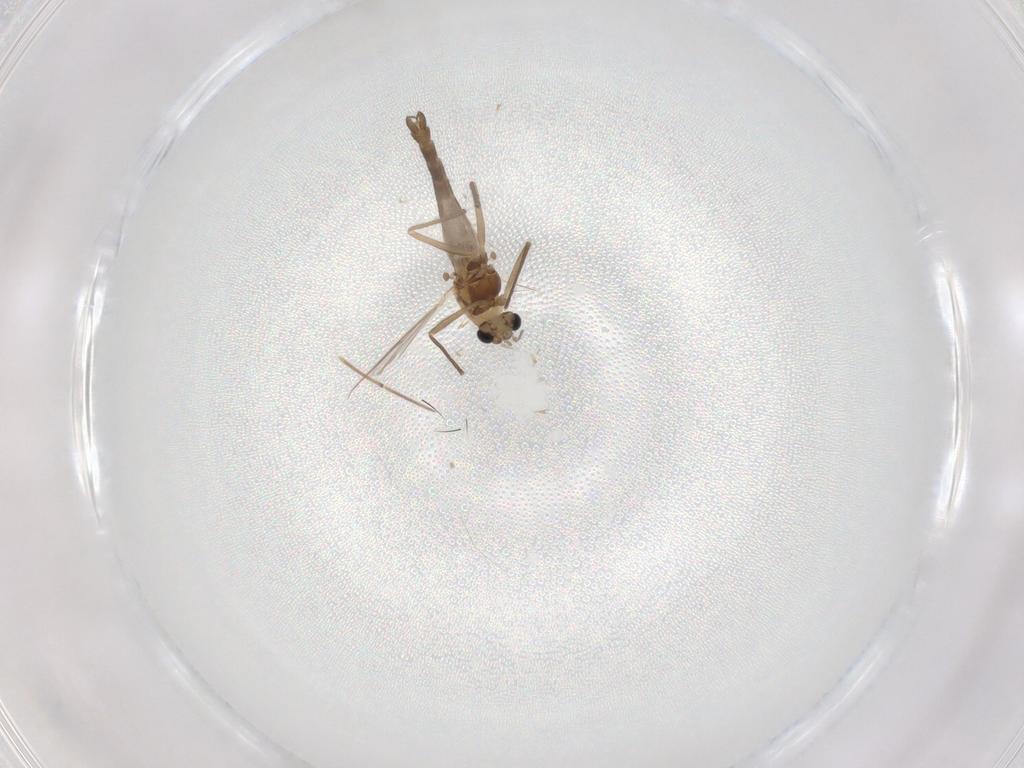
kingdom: Animalia
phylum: Arthropoda
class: Insecta
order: Diptera
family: Chironomidae
